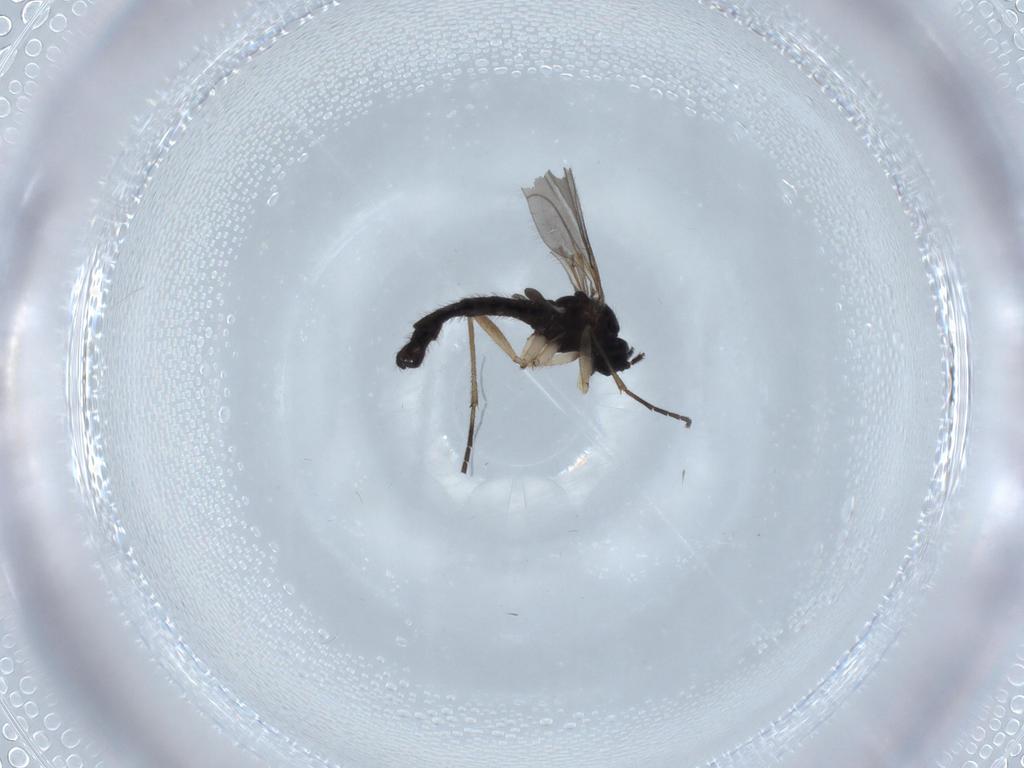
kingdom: Animalia
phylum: Arthropoda
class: Insecta
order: Diptera
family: Sciaridae
